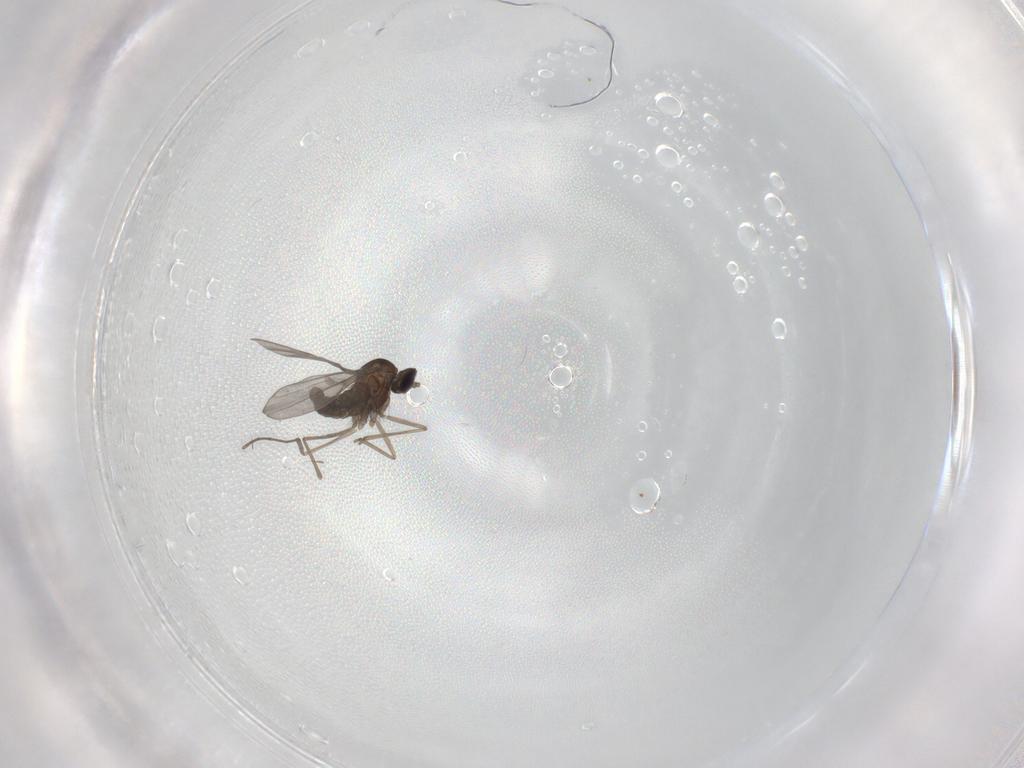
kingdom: Animalia
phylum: Arthropoda
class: Insecta
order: Diptera
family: Cecidomyiidae
